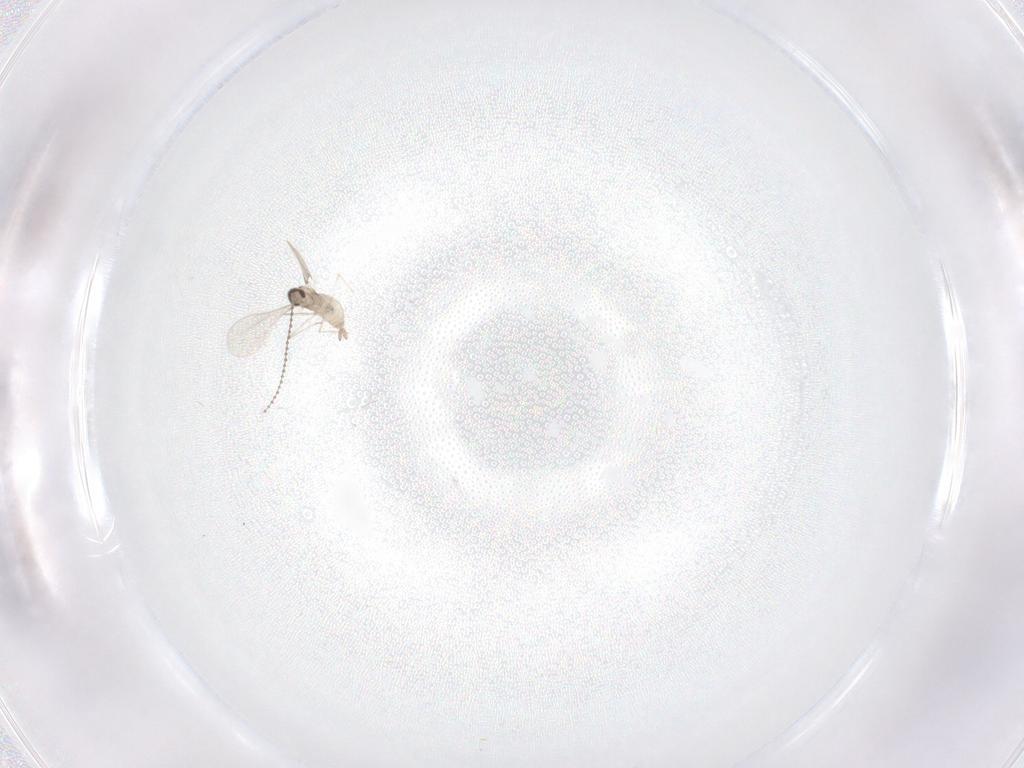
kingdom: Animalia
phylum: Arthropoda
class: Insecta
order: Diptera
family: Cecidomyiidae
